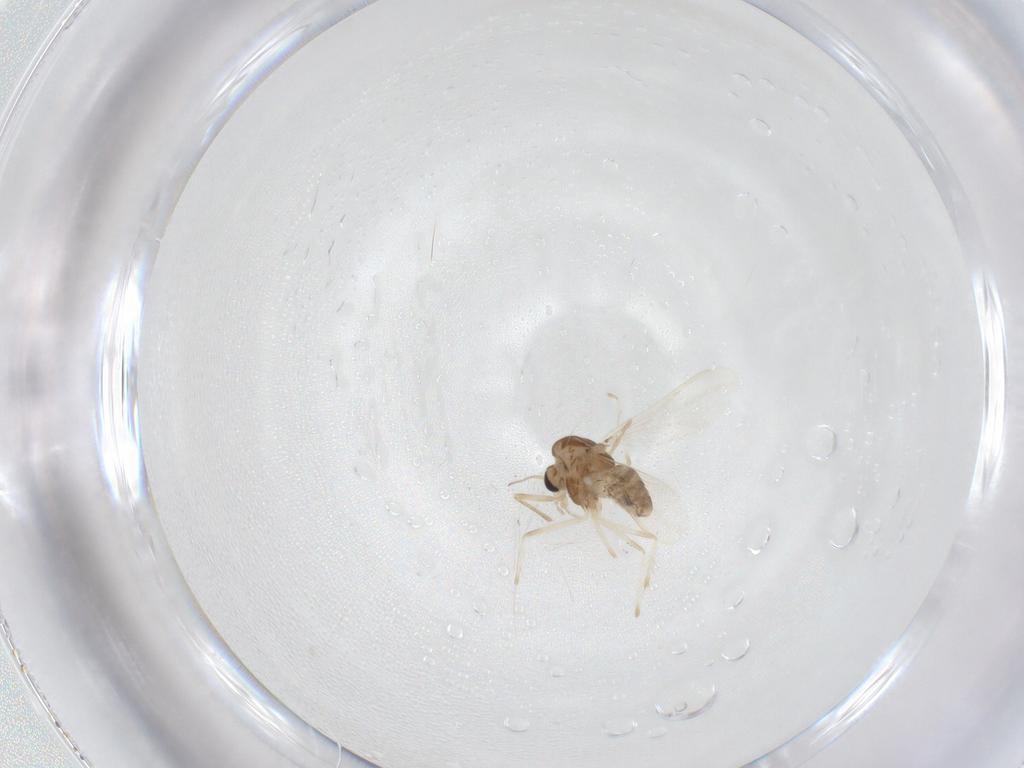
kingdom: Animalia
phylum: Arthropoda
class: Insecta
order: Diptera
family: Chironomidae
